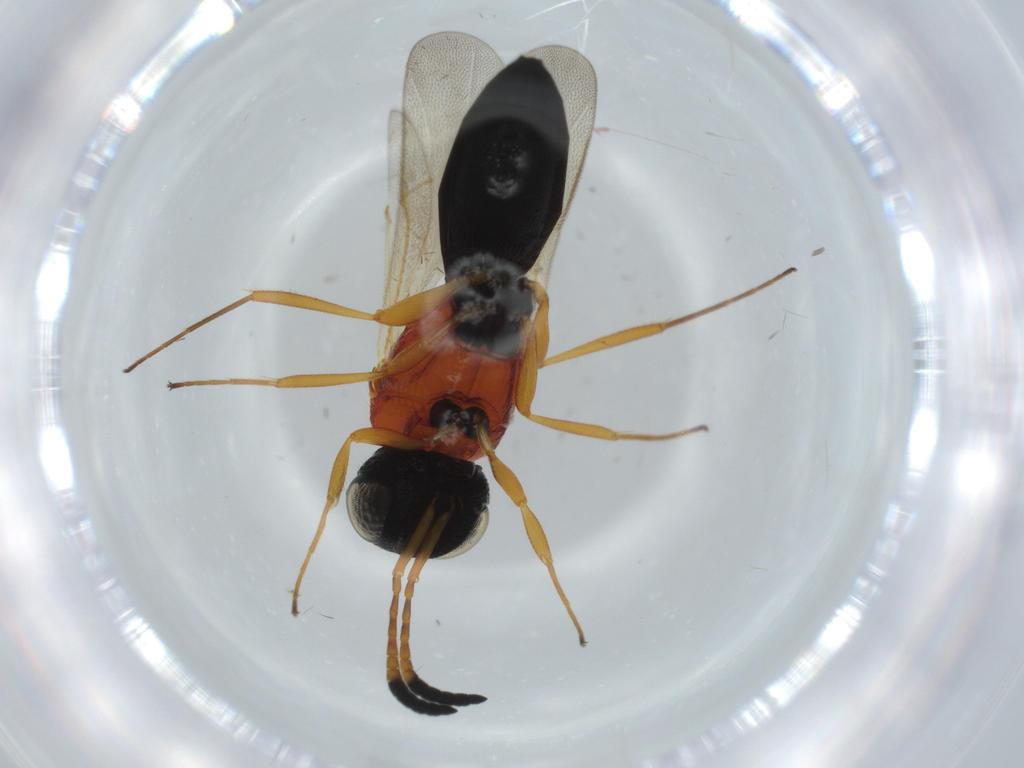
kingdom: Animalia
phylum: Arthropoda
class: Insecta
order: Hymenoptera
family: Scelionidae
